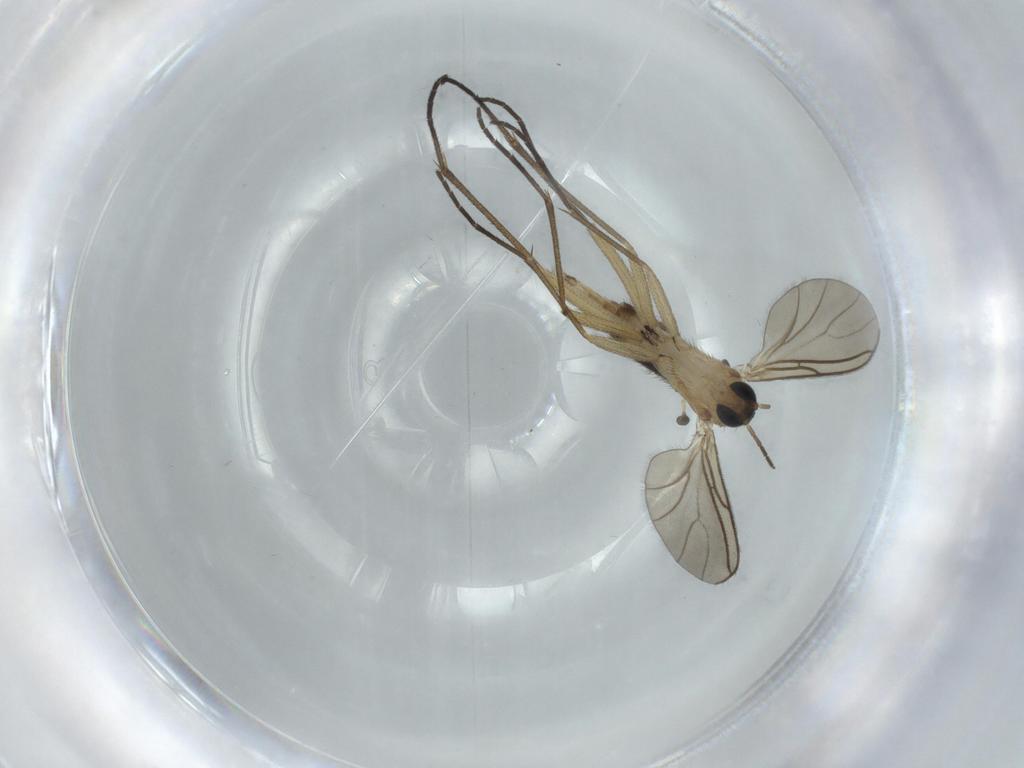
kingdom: Animalia
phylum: Arthropoda
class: Insecta
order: Diptera
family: Sciaridae
